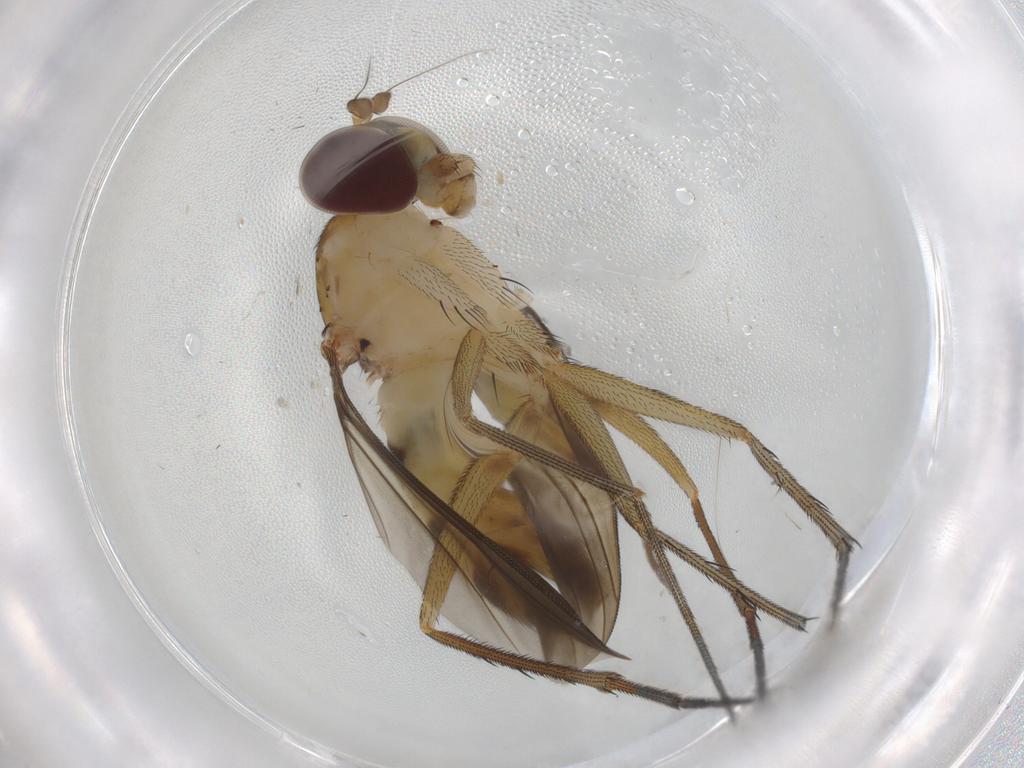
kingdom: Animalia
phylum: Arthropoda
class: Insecta
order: Diptera
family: Dolichopodidae
